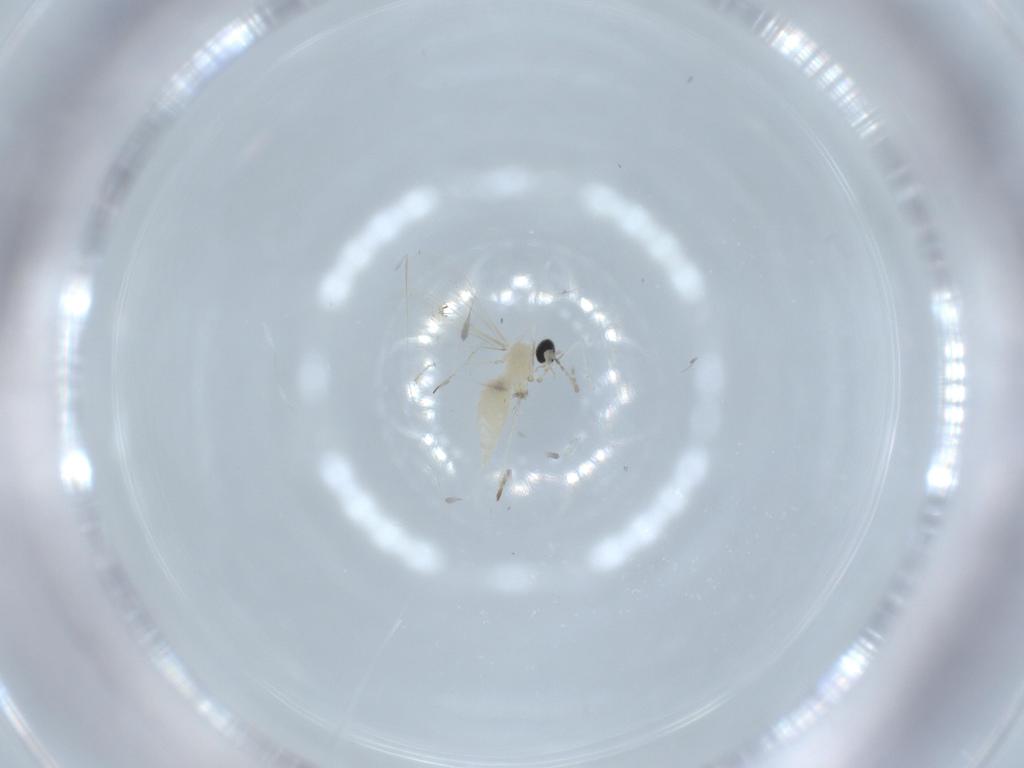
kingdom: Animalia
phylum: Arthropoda
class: Insecta
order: Diptera
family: Cecidomyiidae
